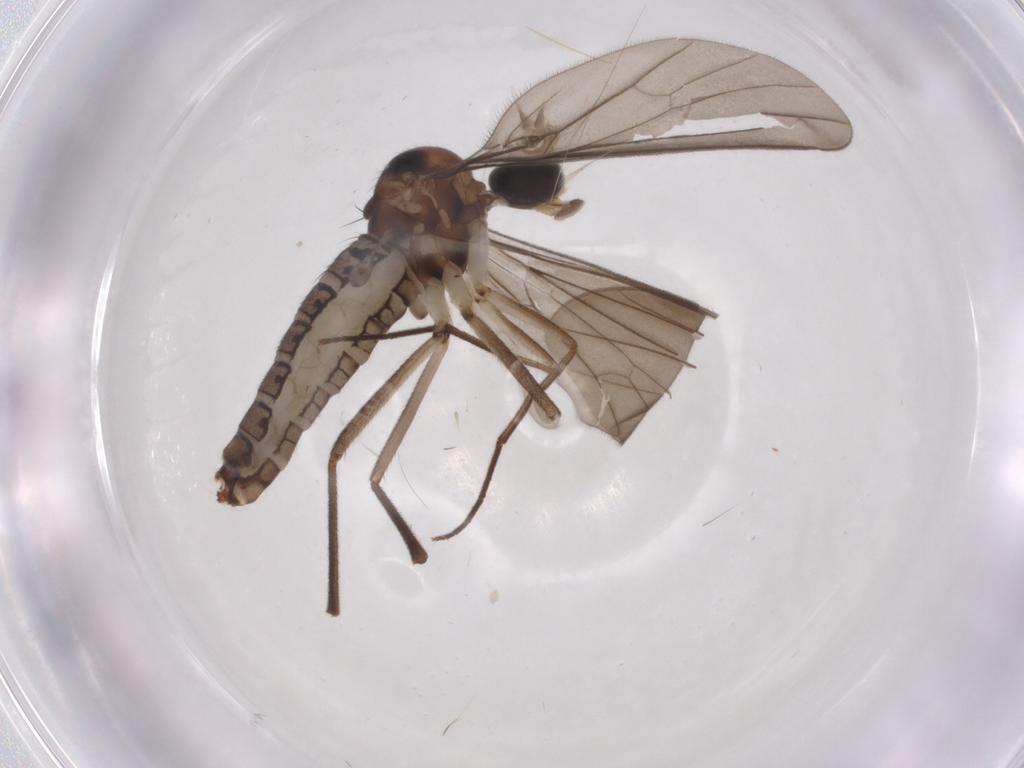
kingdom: Animalia
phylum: Arthropoda
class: Insecta
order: Diptera
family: Empididae
